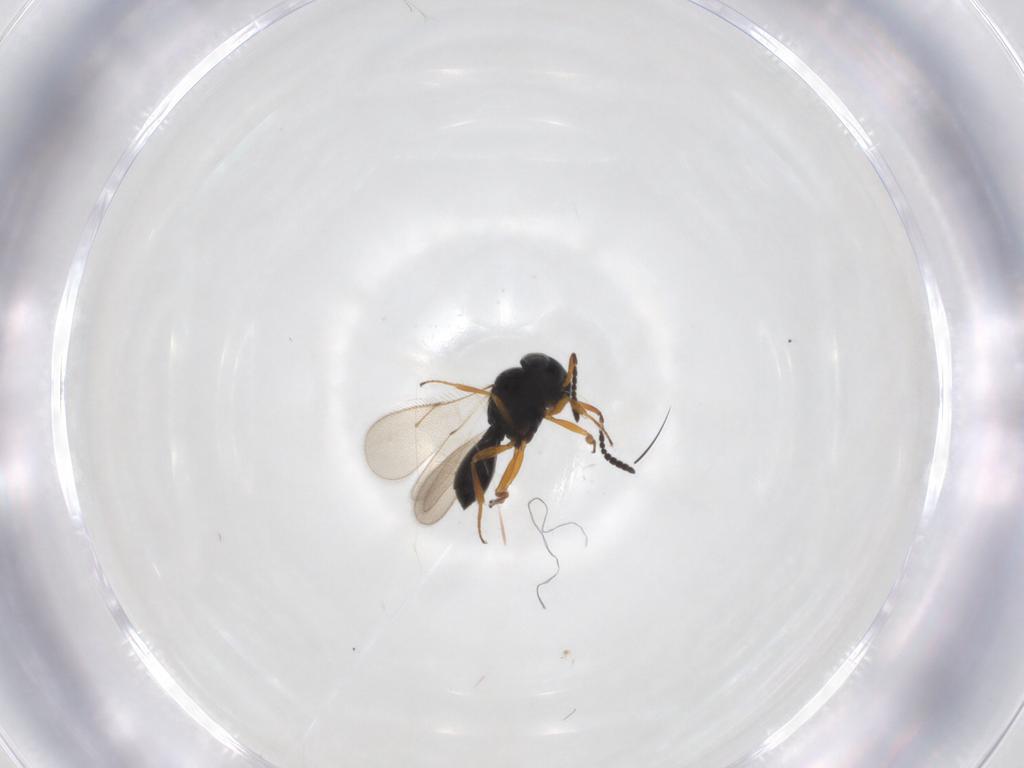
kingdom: Animalia
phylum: Arthropoda
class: Insecta
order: Hymenoptera
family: Scelionidae
